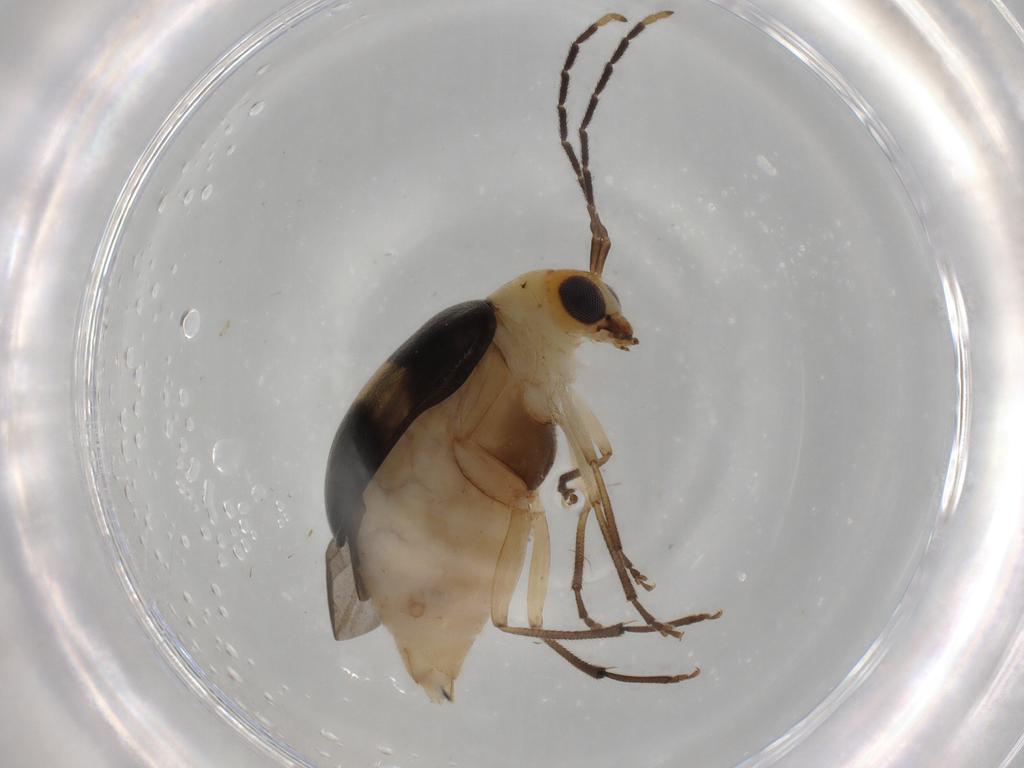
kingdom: Animalia
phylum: Arthropoda
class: Insecta
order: Coleoptera
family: Chrysomelidae
